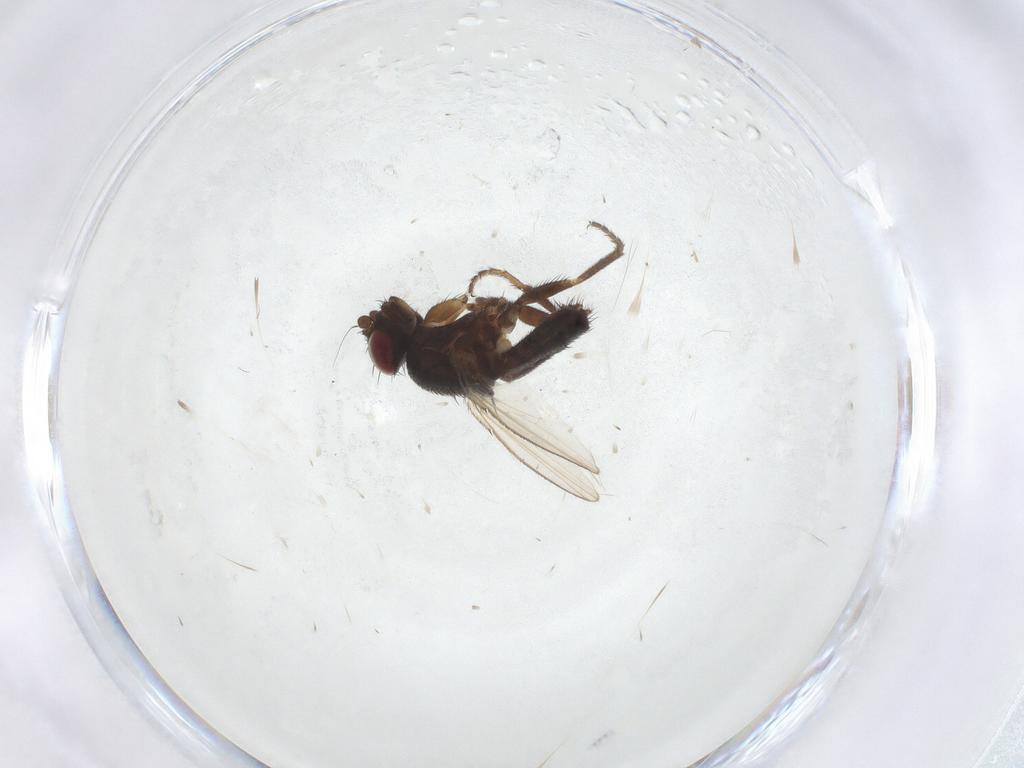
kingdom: Animalia
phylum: Arthropoda
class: Insecta
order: Diptera
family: Milichiidae
